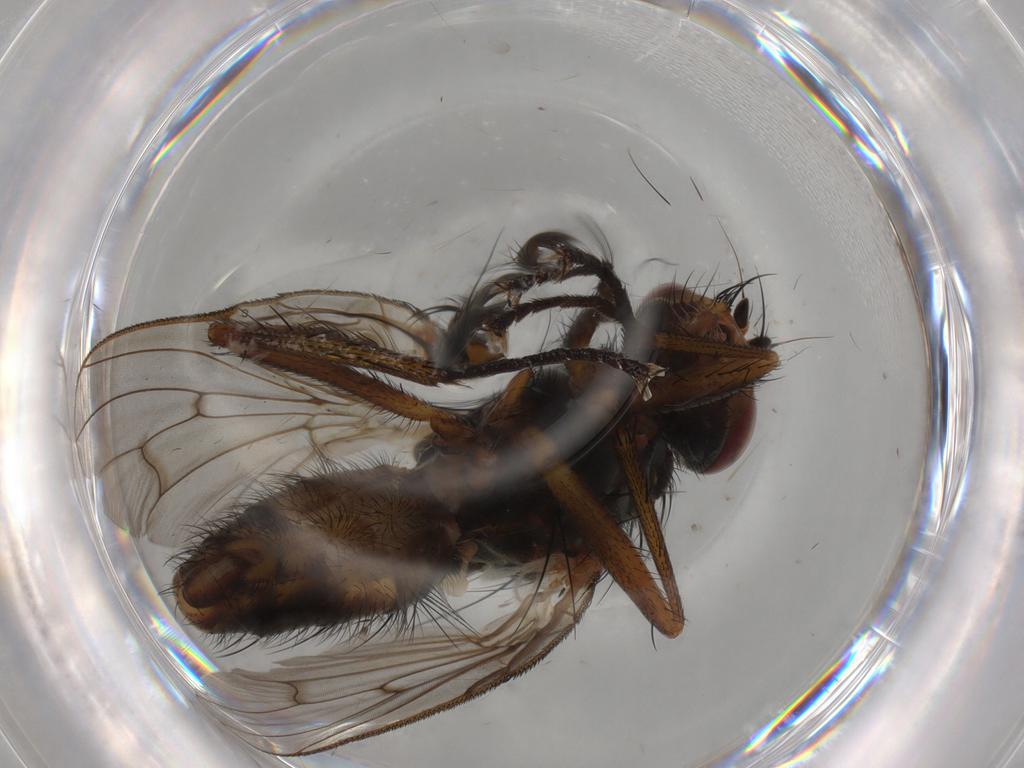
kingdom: Animalia
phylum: Arthropoda
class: Insecta
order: Diptera
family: Anthomyiidae
